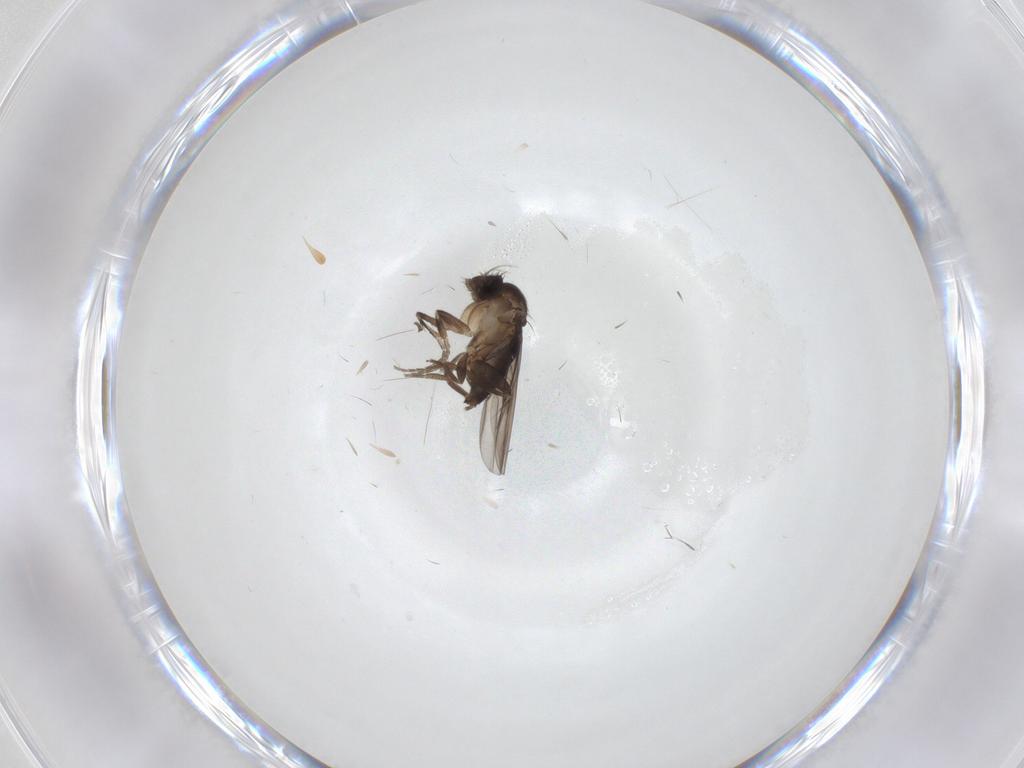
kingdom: Animalia
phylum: Arthropoda
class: Insecta
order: Diptera
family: Phoridae
